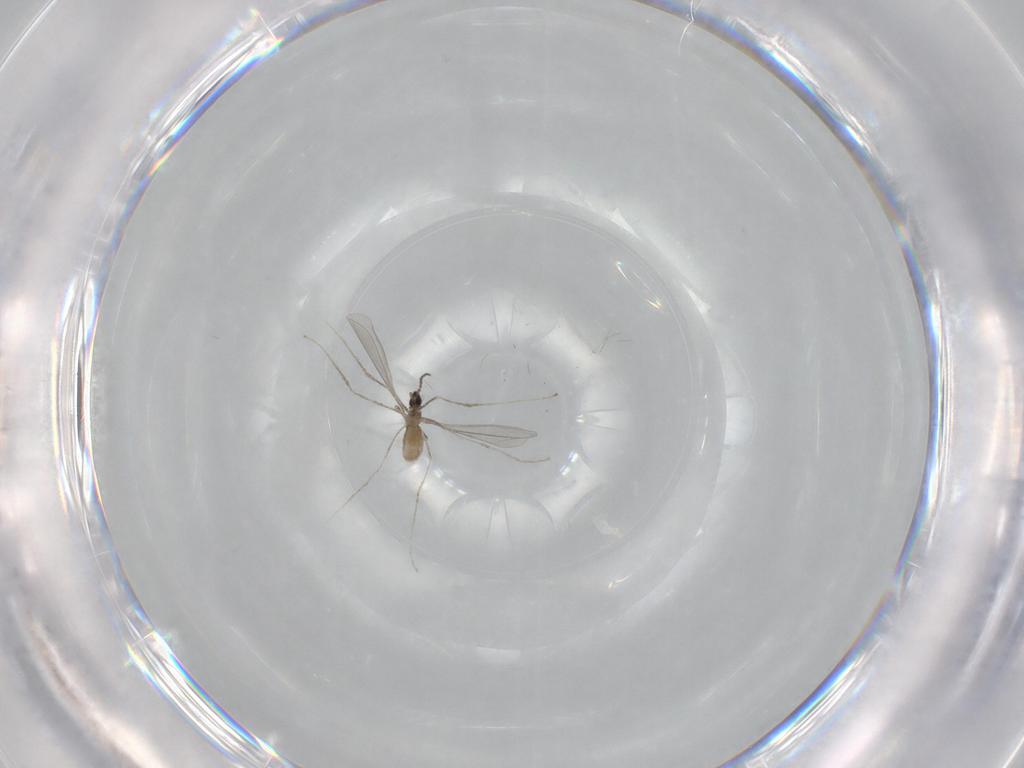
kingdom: Animalia
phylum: Arthropoda
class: Insecta
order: Diptera
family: Cecidomyiidae
